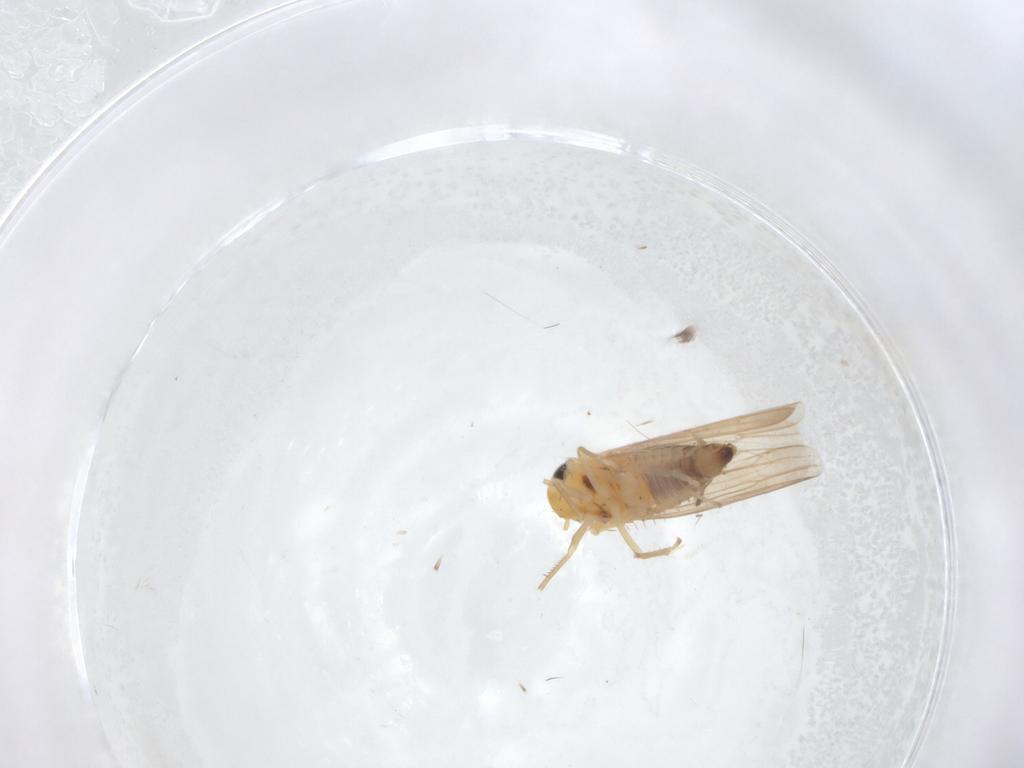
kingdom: Animalia
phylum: Arthropoda
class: Insecta
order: Hemiptera
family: Cicadellidae
